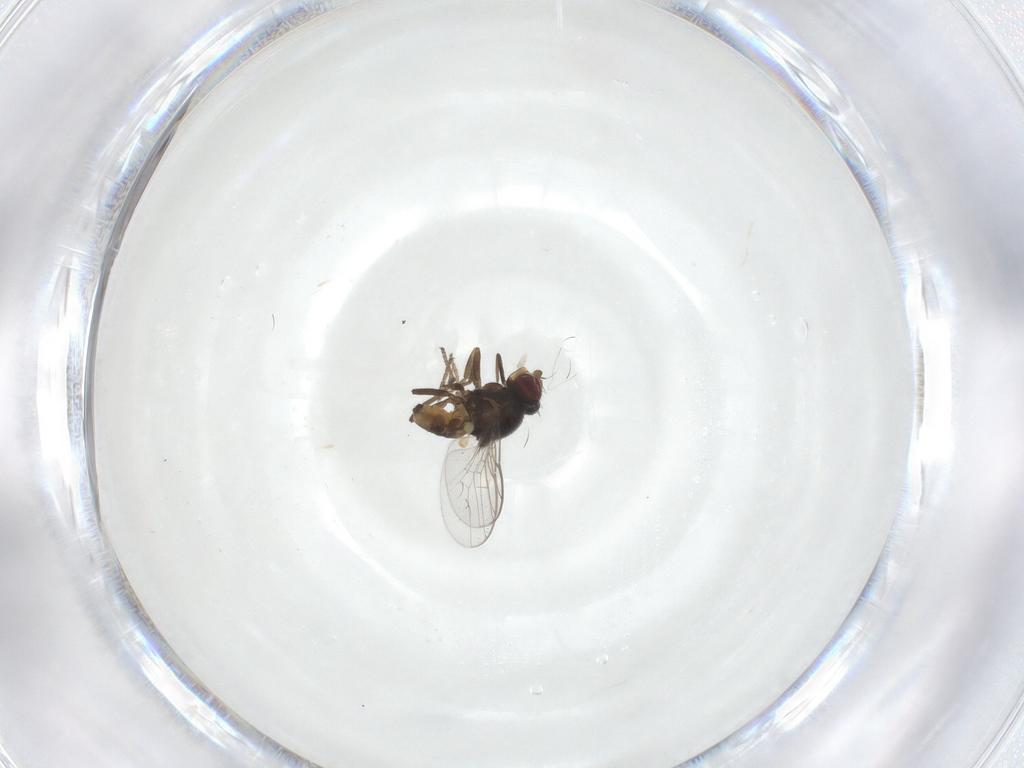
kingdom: Animalia
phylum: Arthropoda
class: Insecta
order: Diptera
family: Chloropidae
